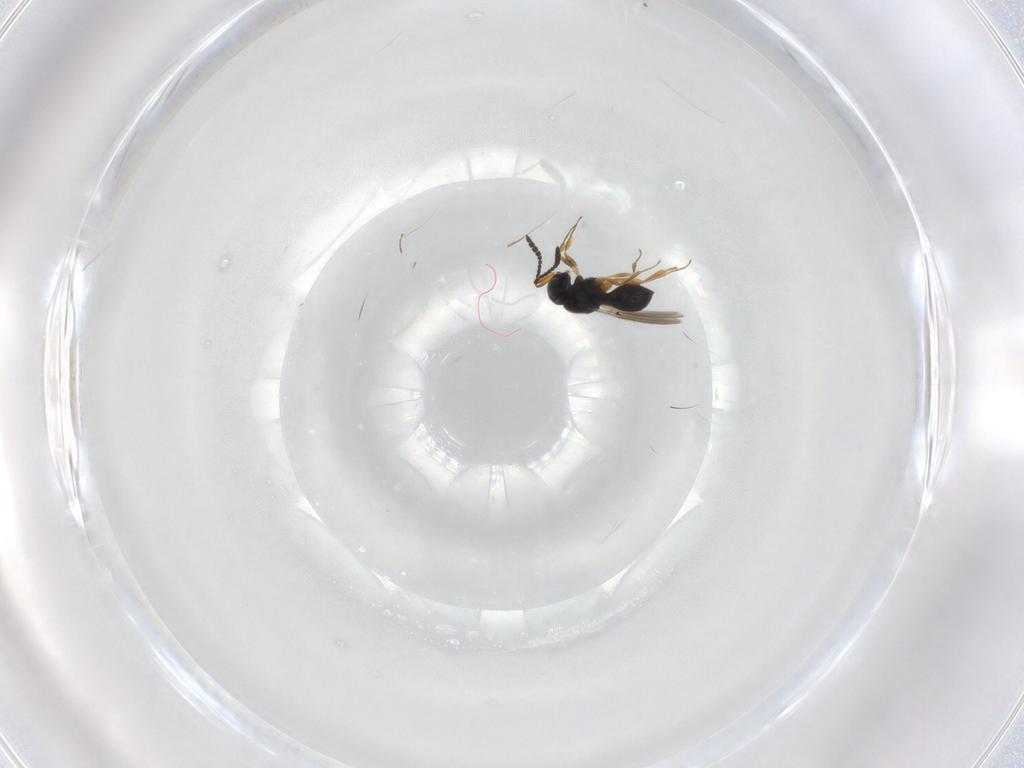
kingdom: Animalia
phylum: Arthropoda
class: Insecta
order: Hymenoptera
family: Scelionidae
